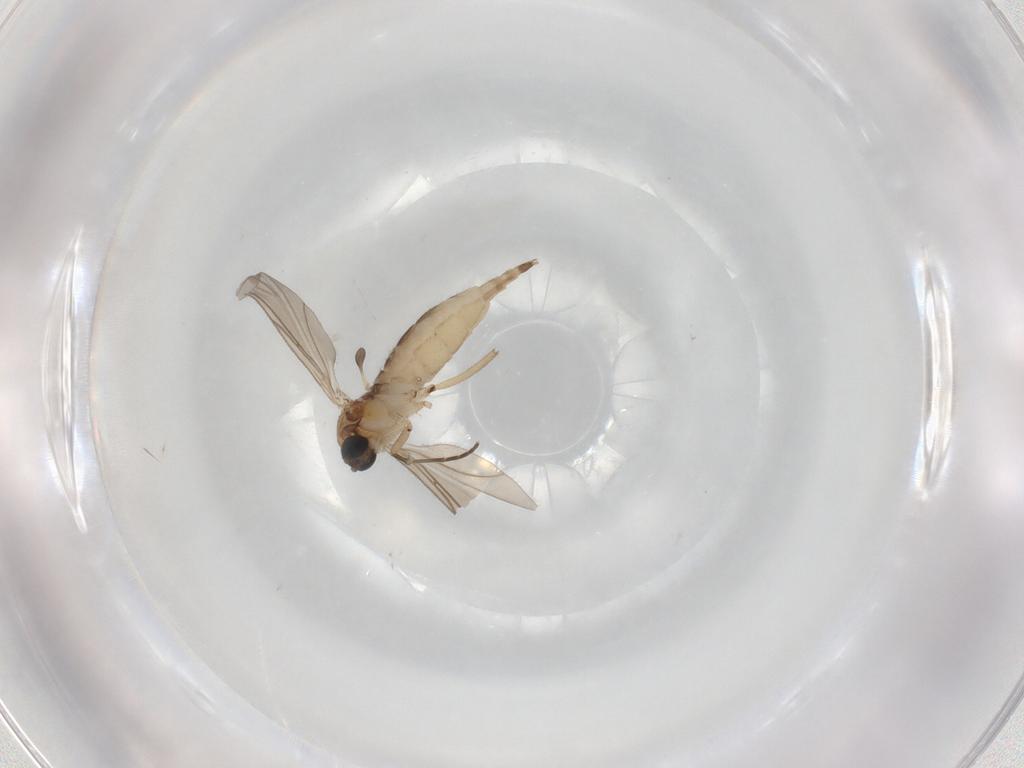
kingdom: Animalia
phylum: Arthropoda
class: Insecta
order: Diptera
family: Sciaridae
